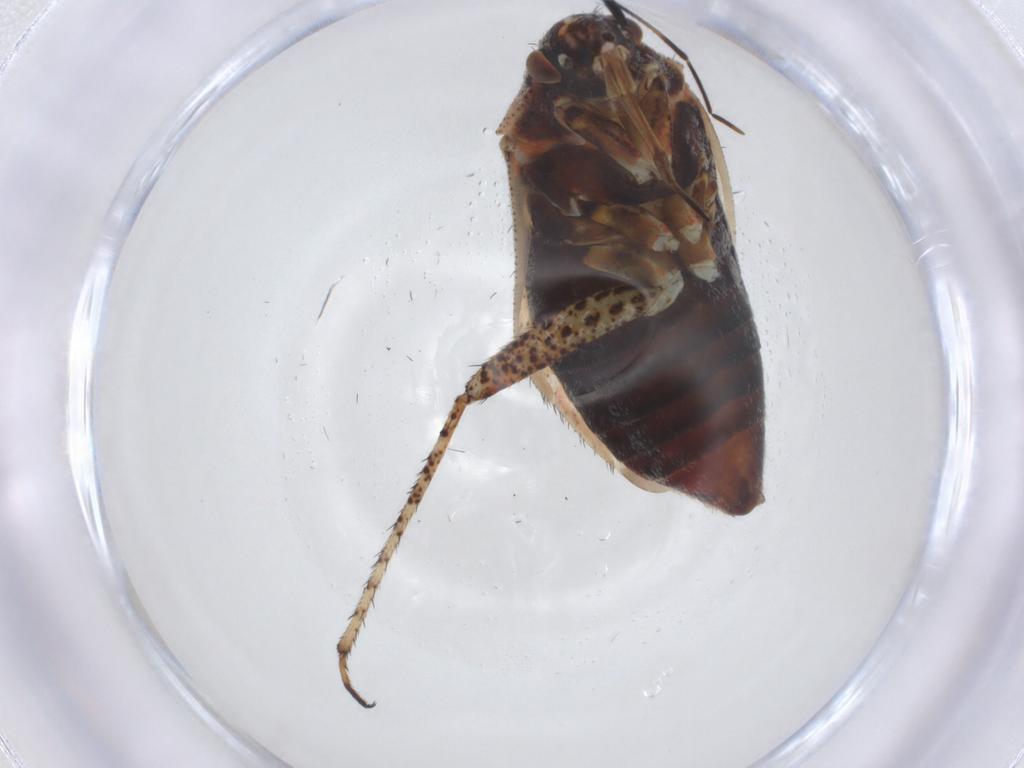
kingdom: Animalia
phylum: Arthropoda
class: Insecta
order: Hemiptera
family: Miridae
